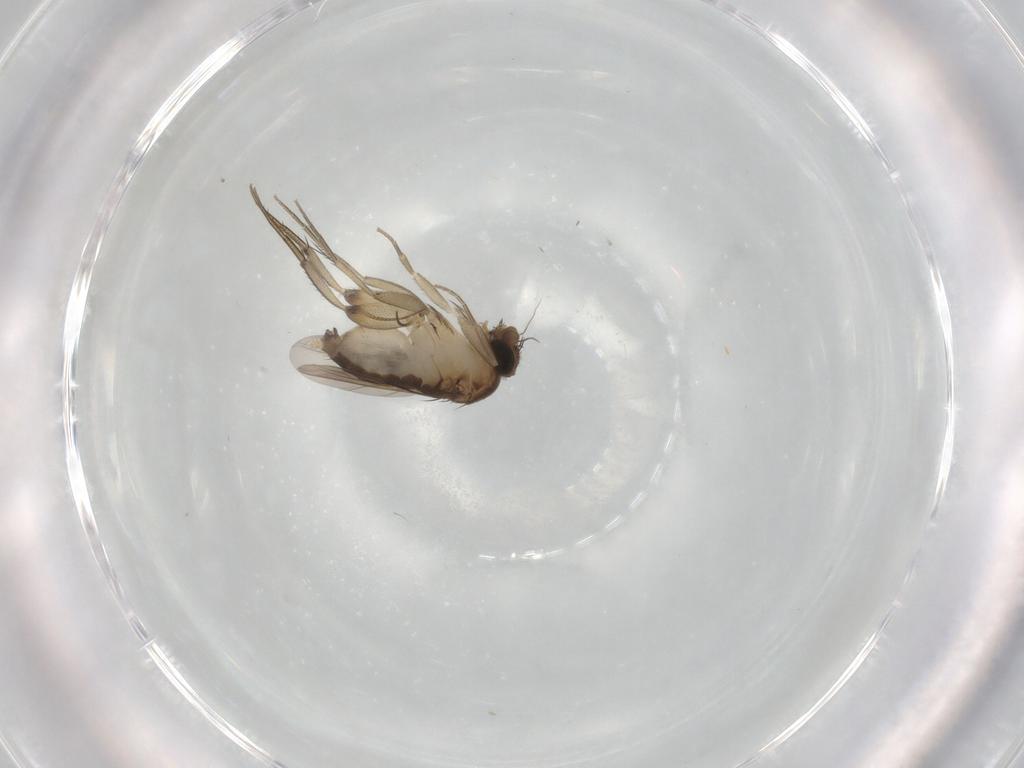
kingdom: Animalia
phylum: Arthropoda
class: Insecta
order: Diptera
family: Phoridae
